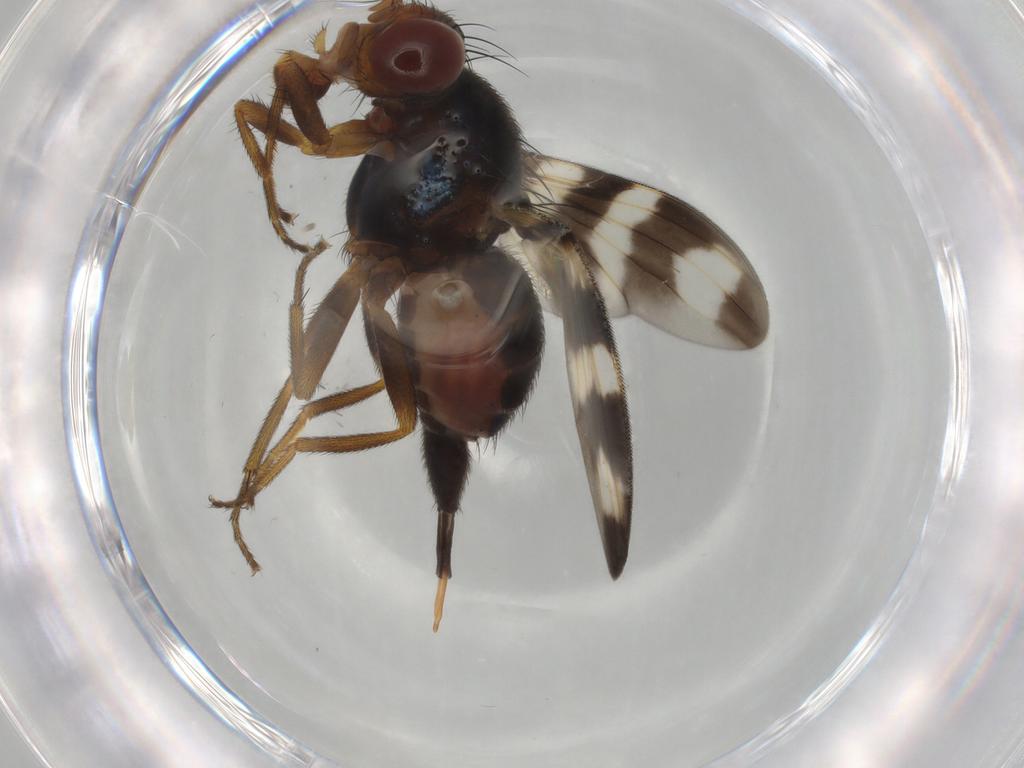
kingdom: Animalia
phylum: Arthropoda
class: Insecta
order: Diptera
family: Ulidiidae
